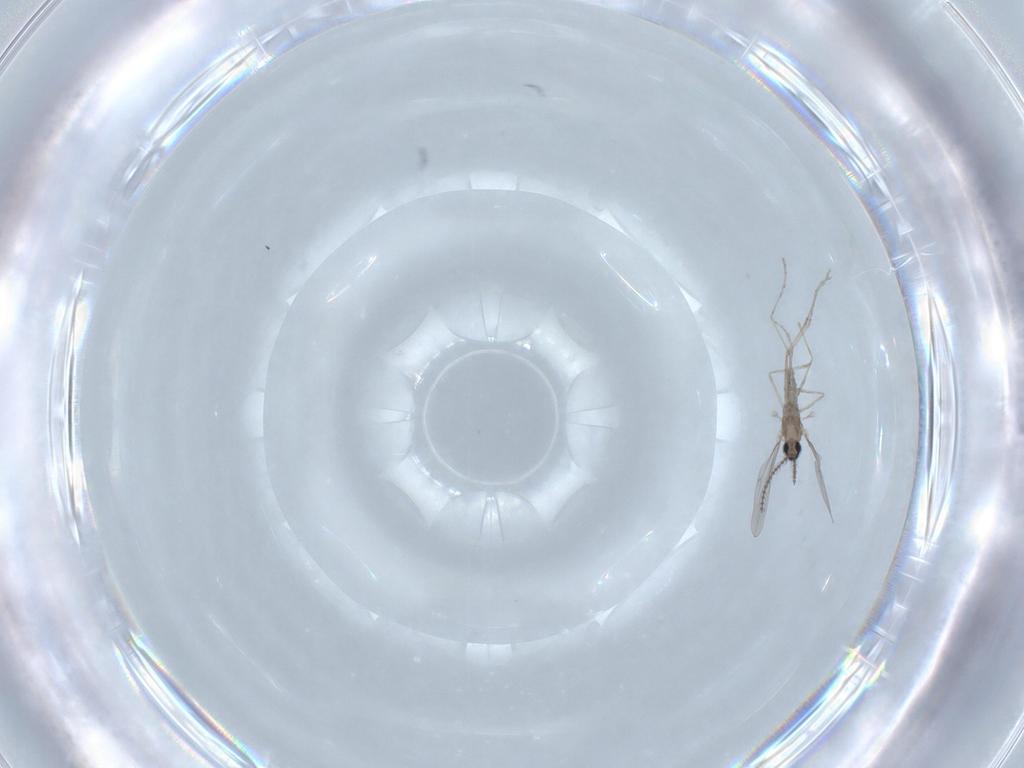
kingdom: Animalia
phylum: Arthropoda
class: Insecta
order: Diptera
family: Cecidomyiidae
